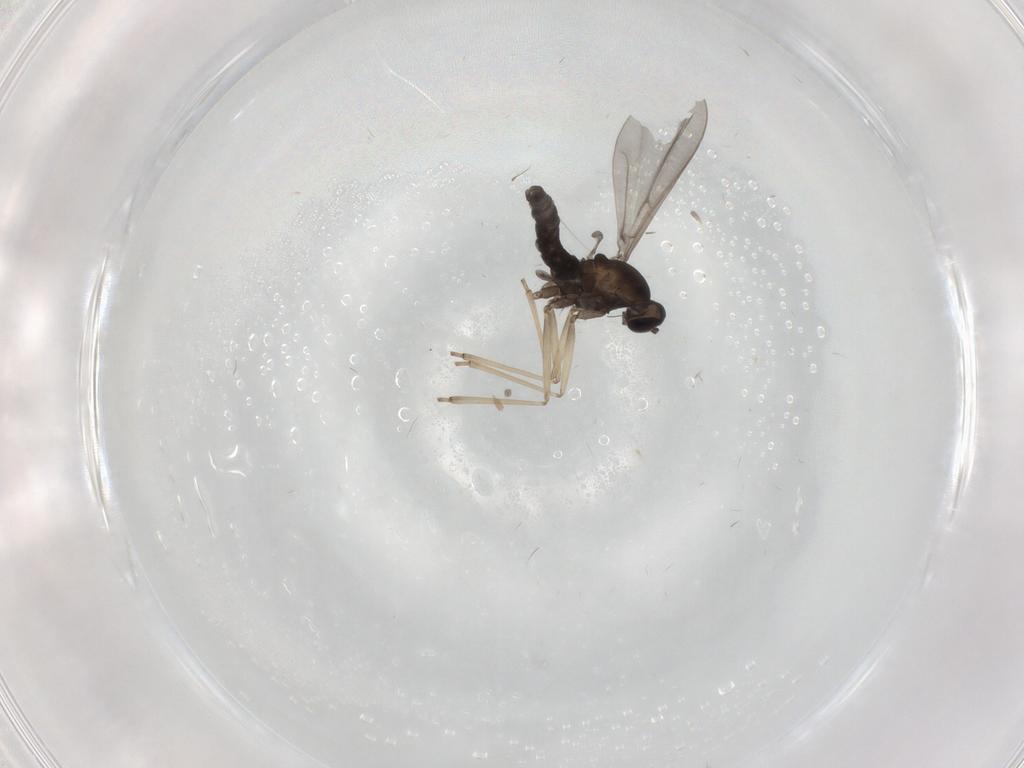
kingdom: Animalia
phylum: Arthropoda
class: Insecta
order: Diptera
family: Cecidomyiidae
